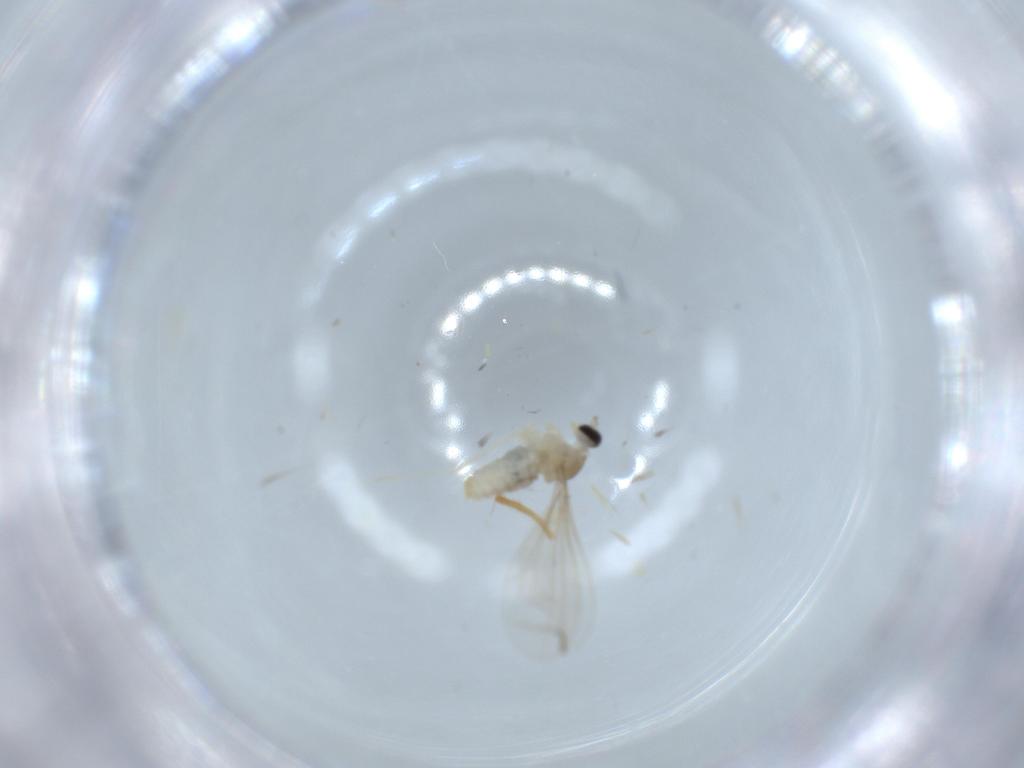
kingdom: Animalia
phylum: Arthropoda
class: Insecta
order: Diptera
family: Cecidomyiidae
